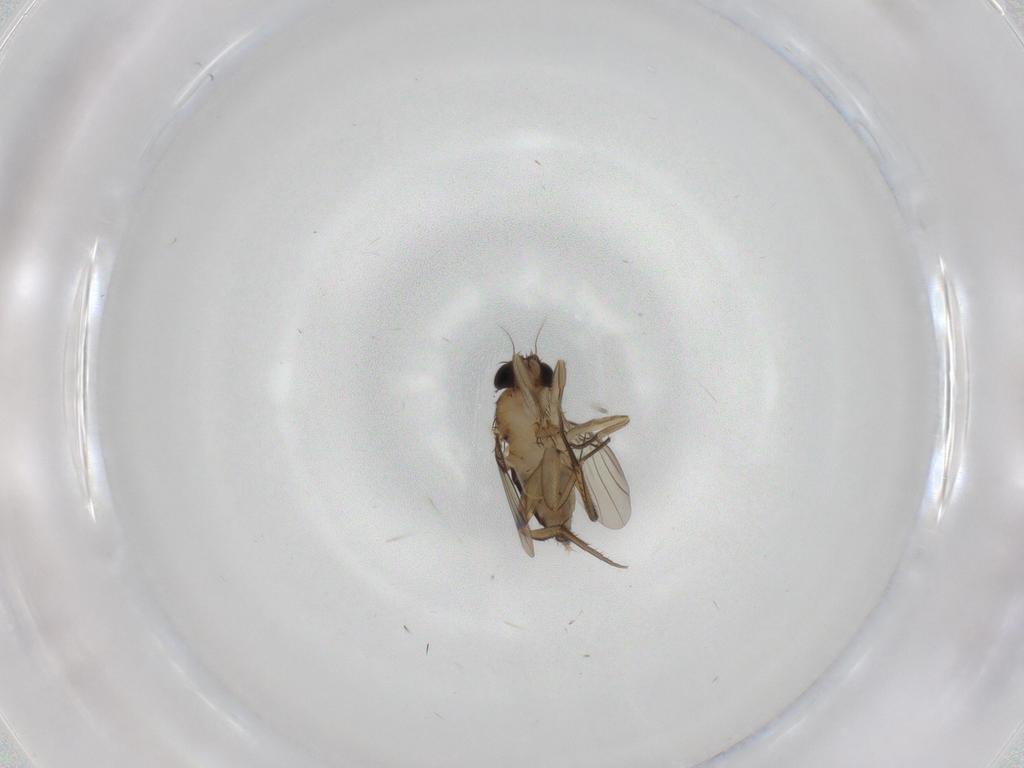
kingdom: Animalia
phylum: Arthropoda
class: Insecta
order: Diptera
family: Phoridae
